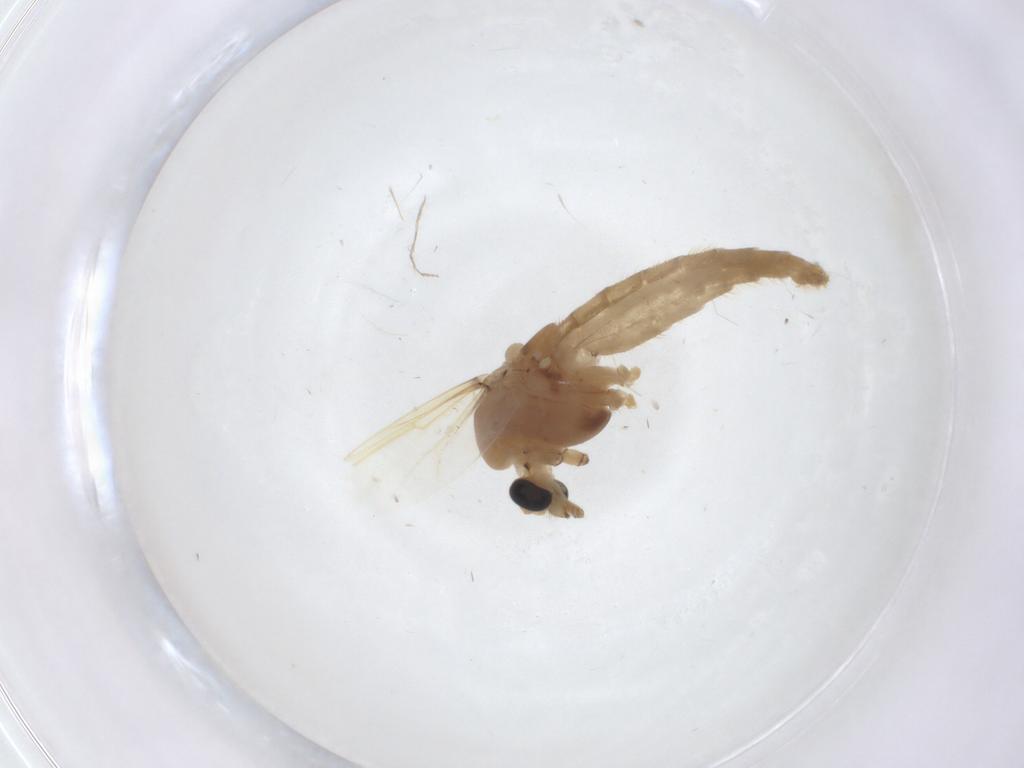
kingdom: Animalia
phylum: Arthropoda
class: Insecta
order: Diptera
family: Chironomidae
